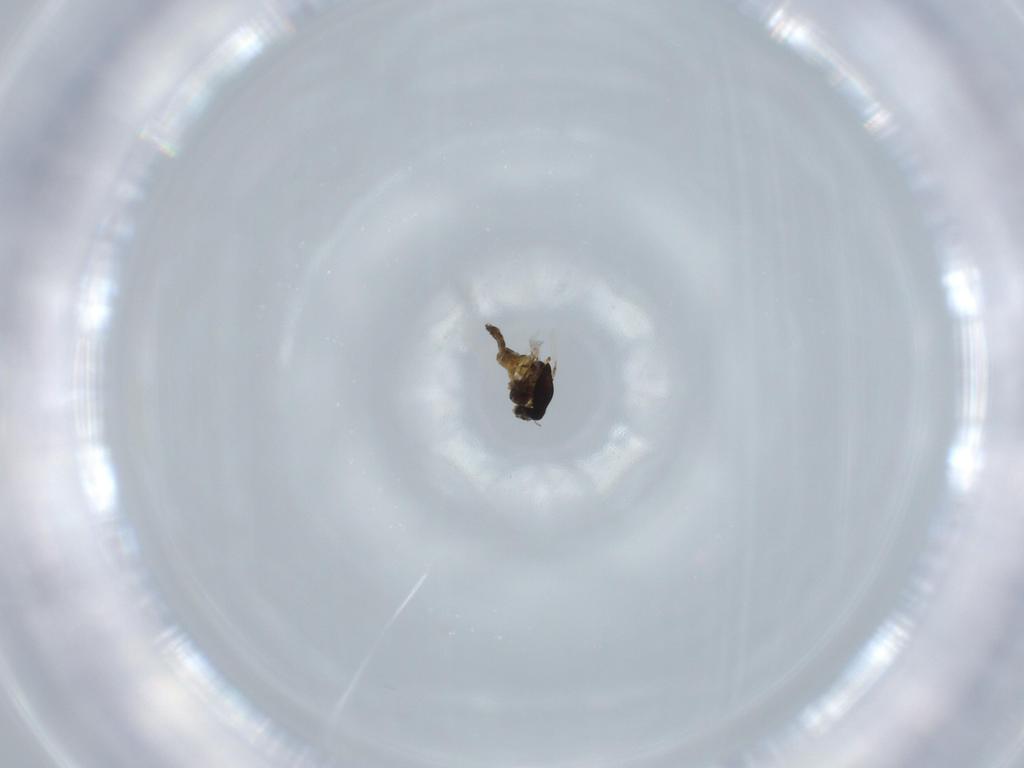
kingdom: Animalia
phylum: Arthropoda
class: Insecta
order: Diptera
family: Chironomidae
